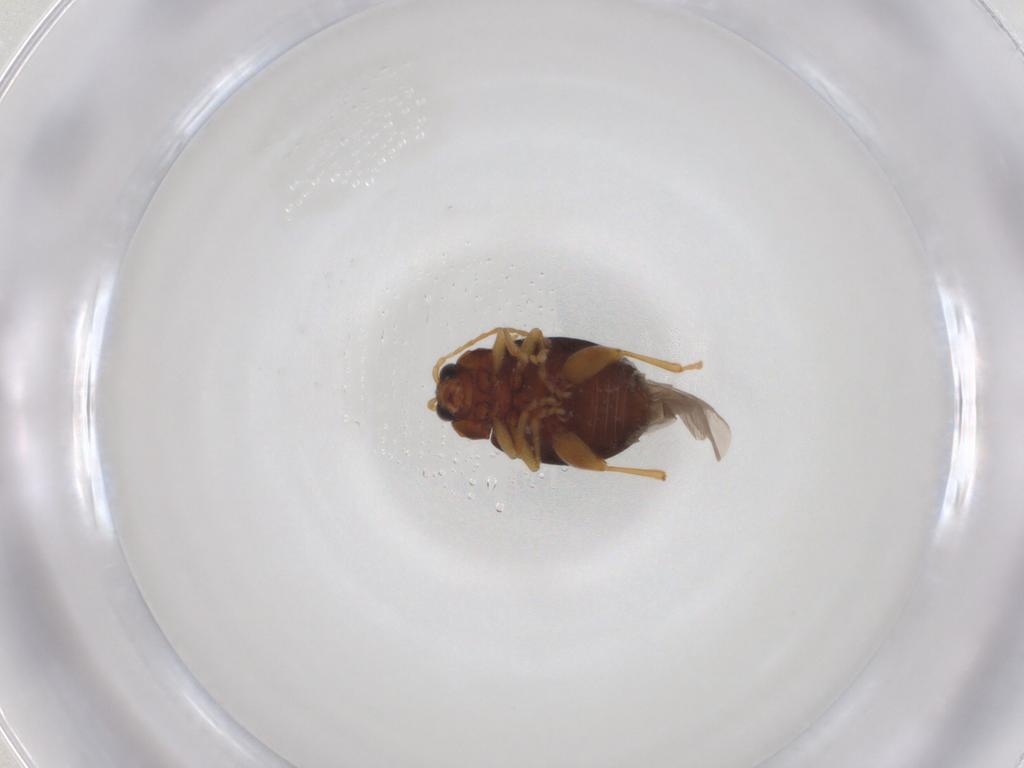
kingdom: Animalia
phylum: Arthropoda
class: Insecta
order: Coleoptera
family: Chrysomelidae
